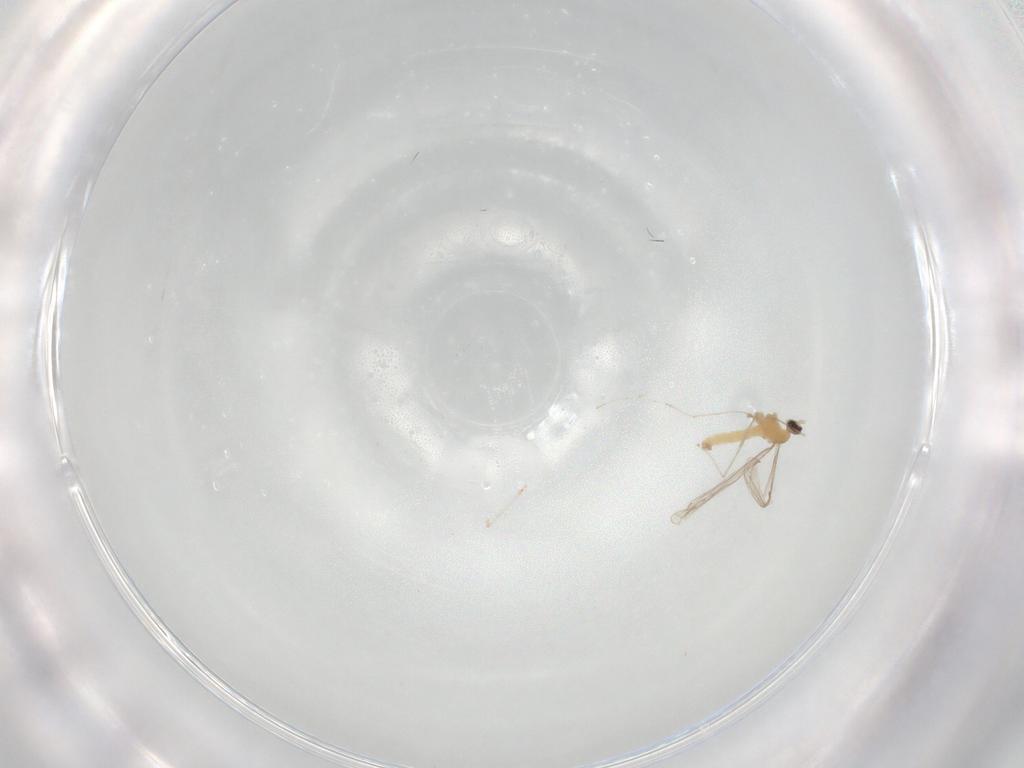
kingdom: Animalia
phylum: Arthropoda
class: Insecta
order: Diptera
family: Cecidomyiidae
